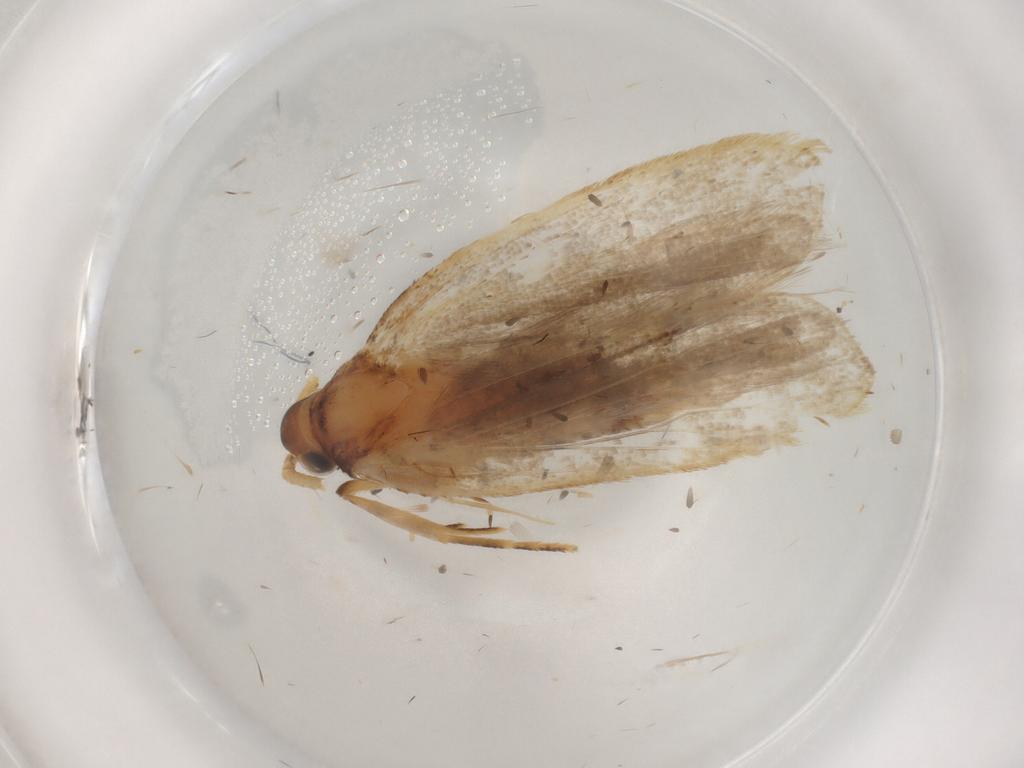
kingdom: Animalia
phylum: Arthropoda
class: Insecta
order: Lepidoptera
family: Lecithoceridae
